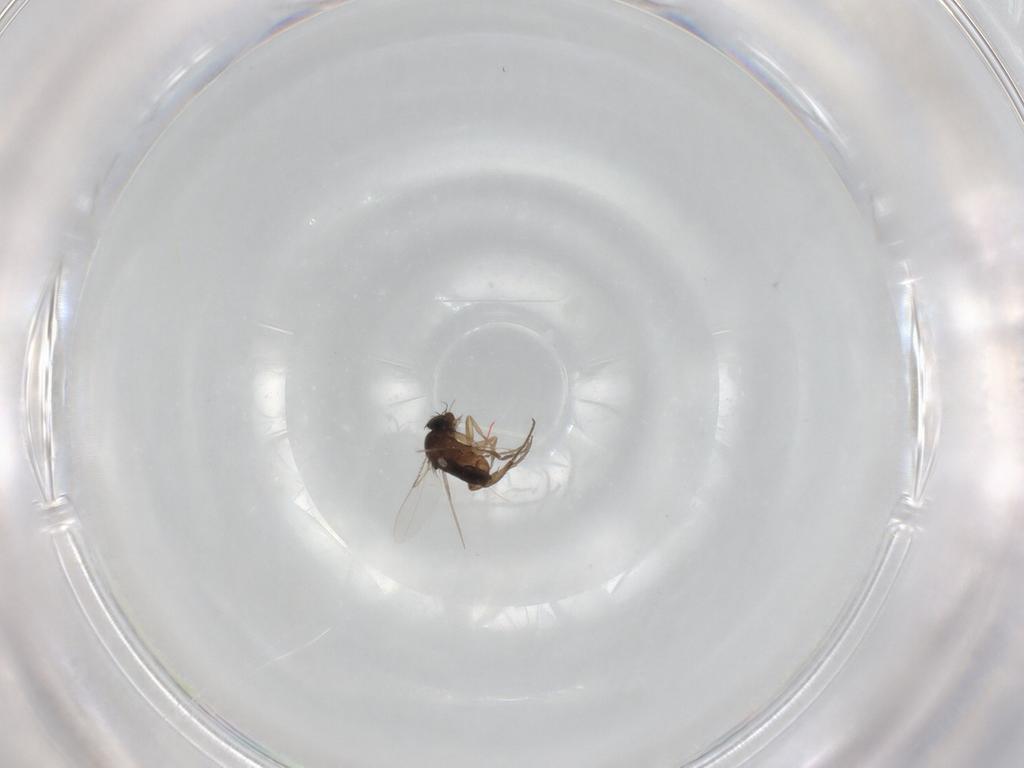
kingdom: Animalia
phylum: Arthropoda
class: Insecta
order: Diptera
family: Phoridae
